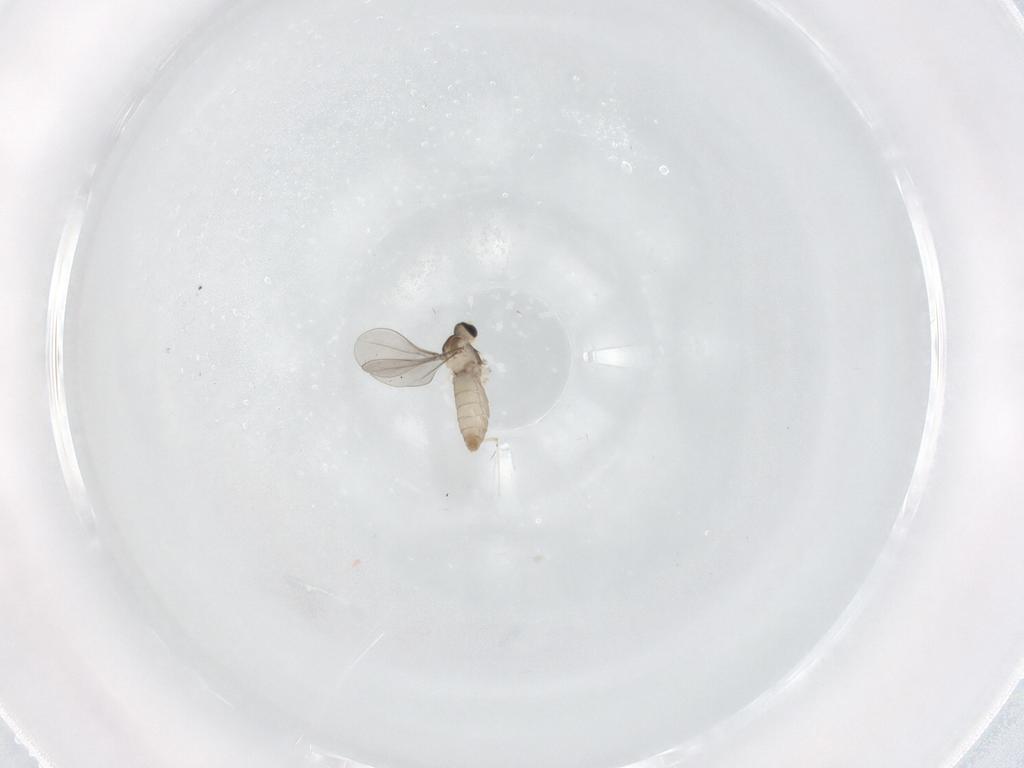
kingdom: Animalia
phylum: Arthropoda
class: Insecta
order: Diptera
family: Cecidomyiidae
